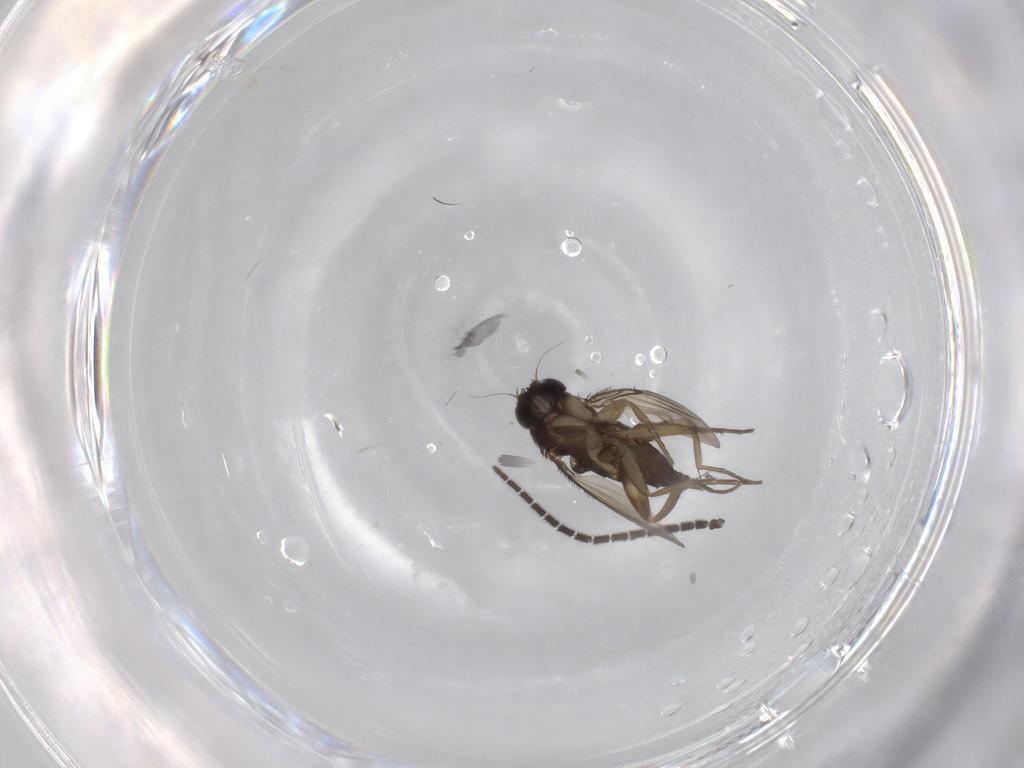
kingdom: Animalia
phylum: Arthropoda
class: Insecta
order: Diptera
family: Phoridae
